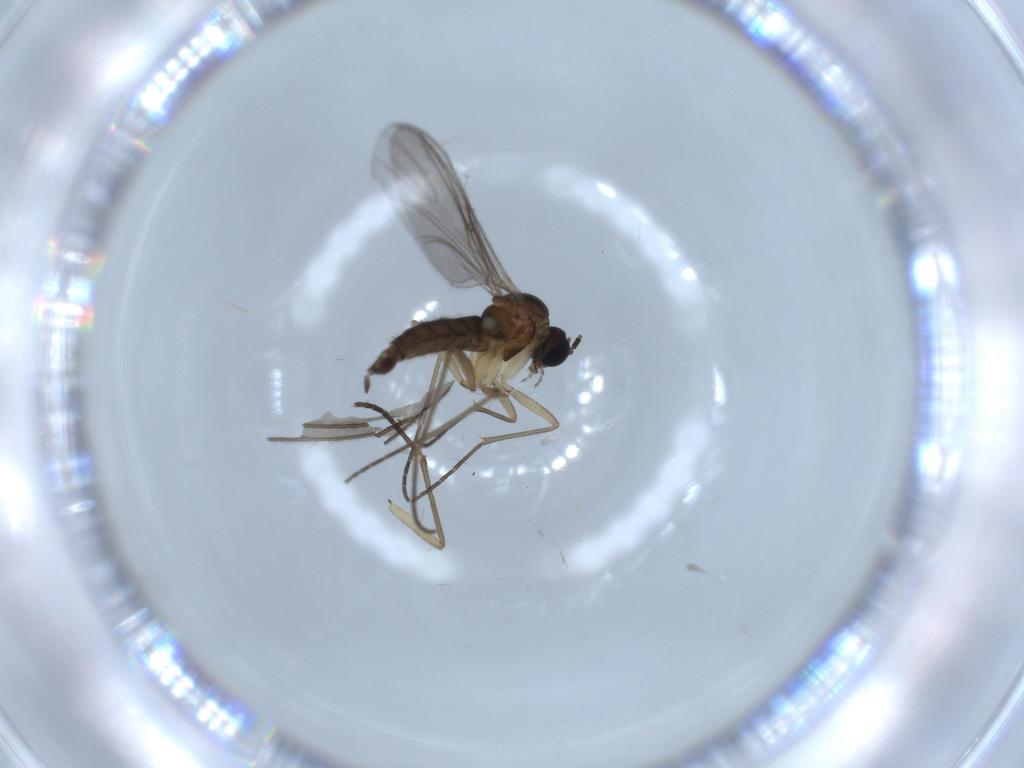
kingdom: Animalia
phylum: Arthropoda
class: Insecta
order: Diptera
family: Sciaridae
